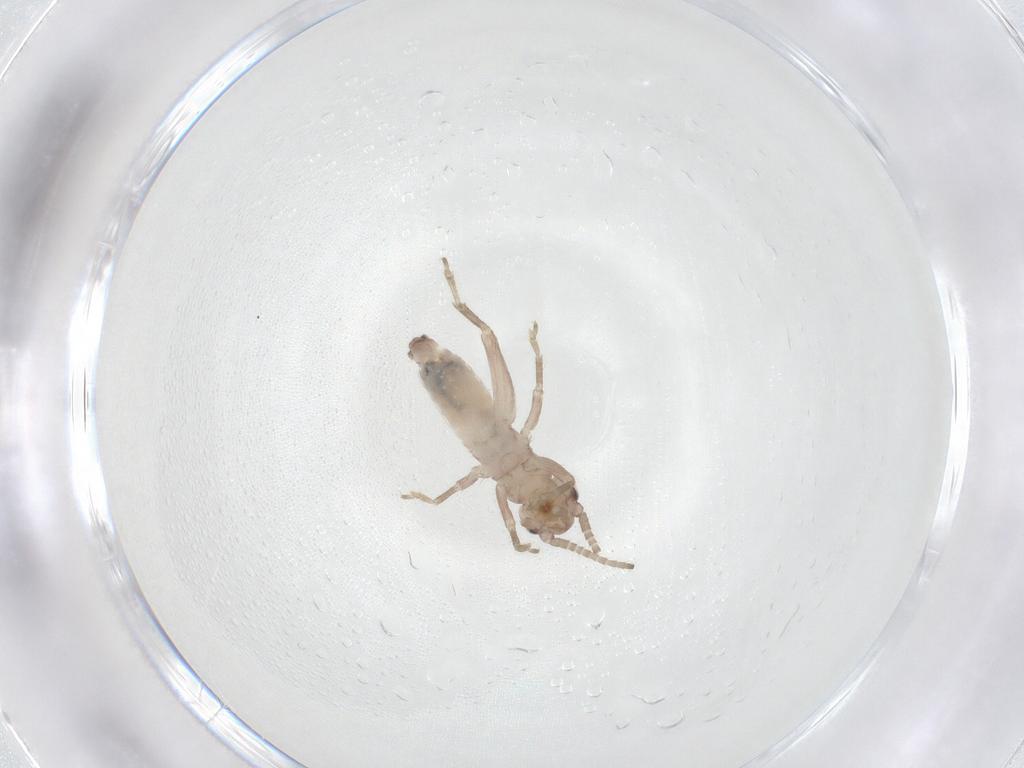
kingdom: Animalia
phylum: Arthropoda
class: Insecta
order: Orthoptera
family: Mogoplistidae
